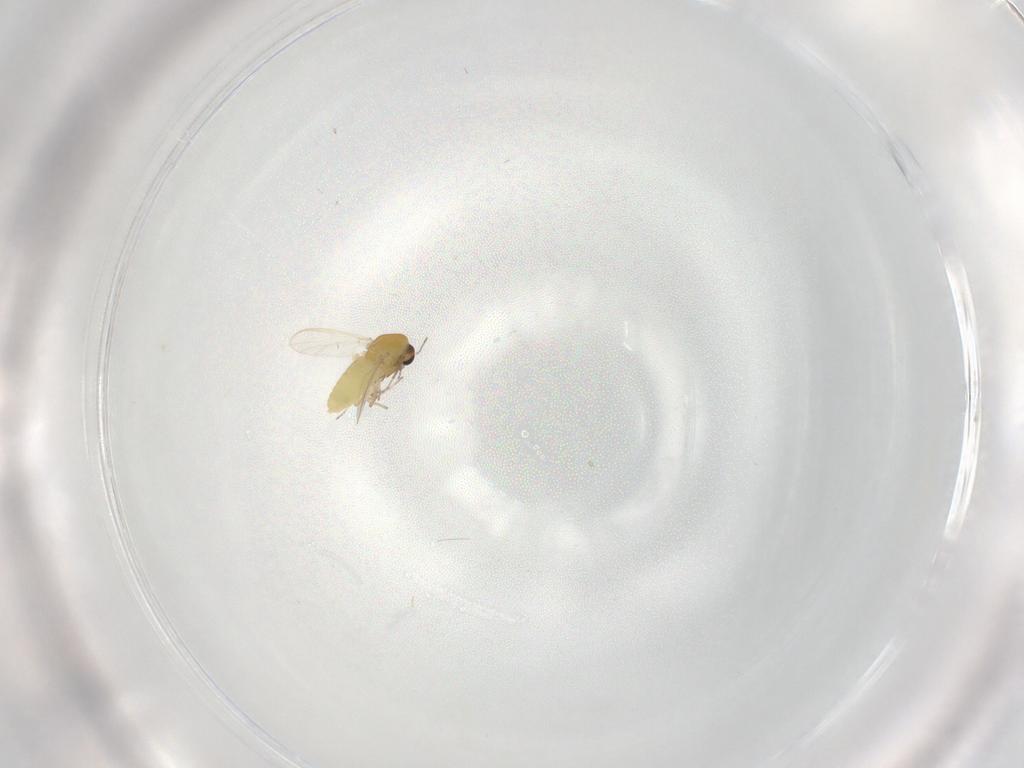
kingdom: Animalia
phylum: Arthropoda
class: Insecta
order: Diptera
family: Chironomidae
